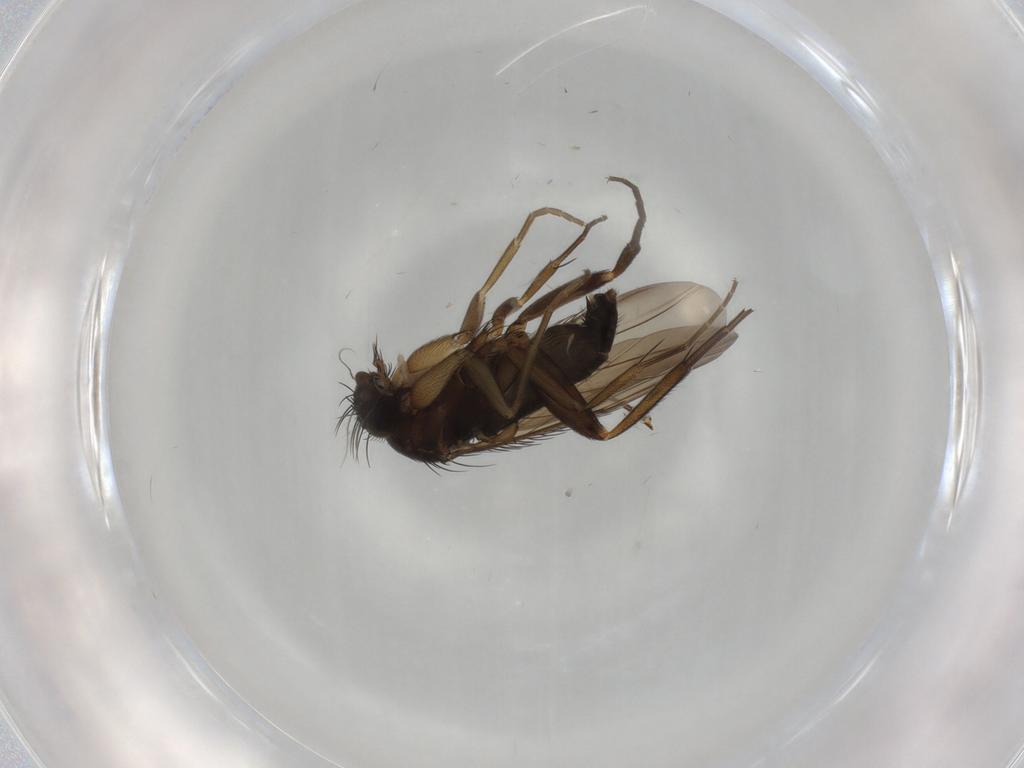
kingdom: Animalia
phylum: Arthropoda
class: Insecta
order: Diptera
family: Phoridae
